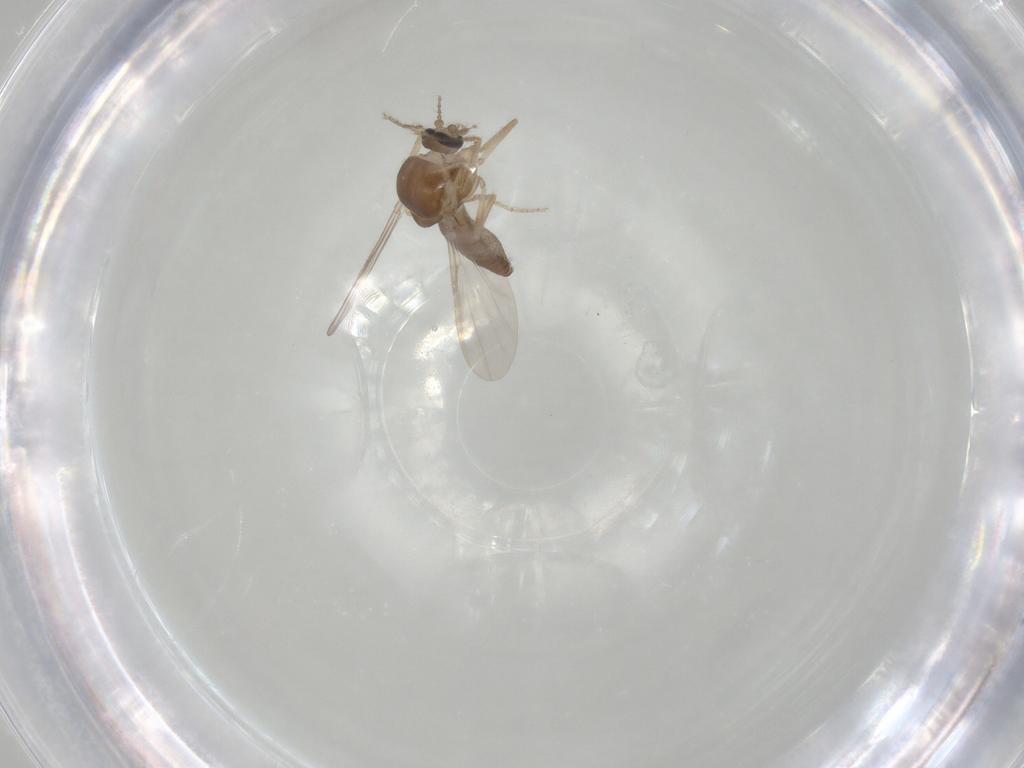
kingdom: Animalia
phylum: Arthropoda
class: Insecta
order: Diptera
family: Ceratopogonidae
